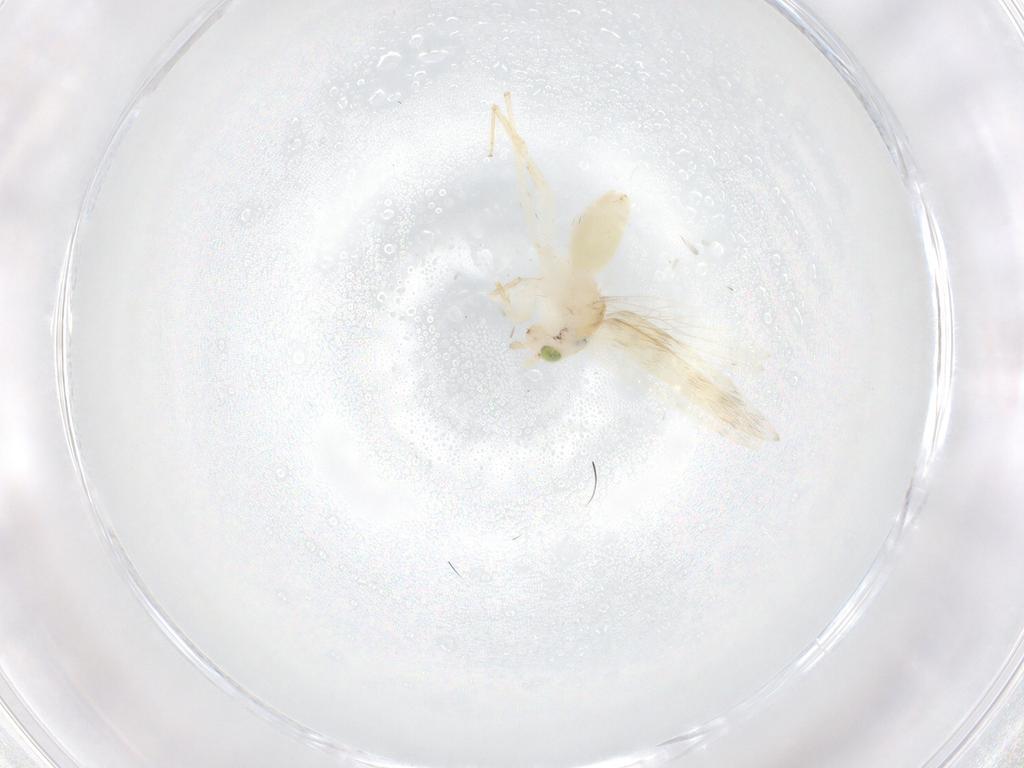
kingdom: Animalia
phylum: Arthropoda
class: Insecta
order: Psocodea
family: Lepidopsocidae
